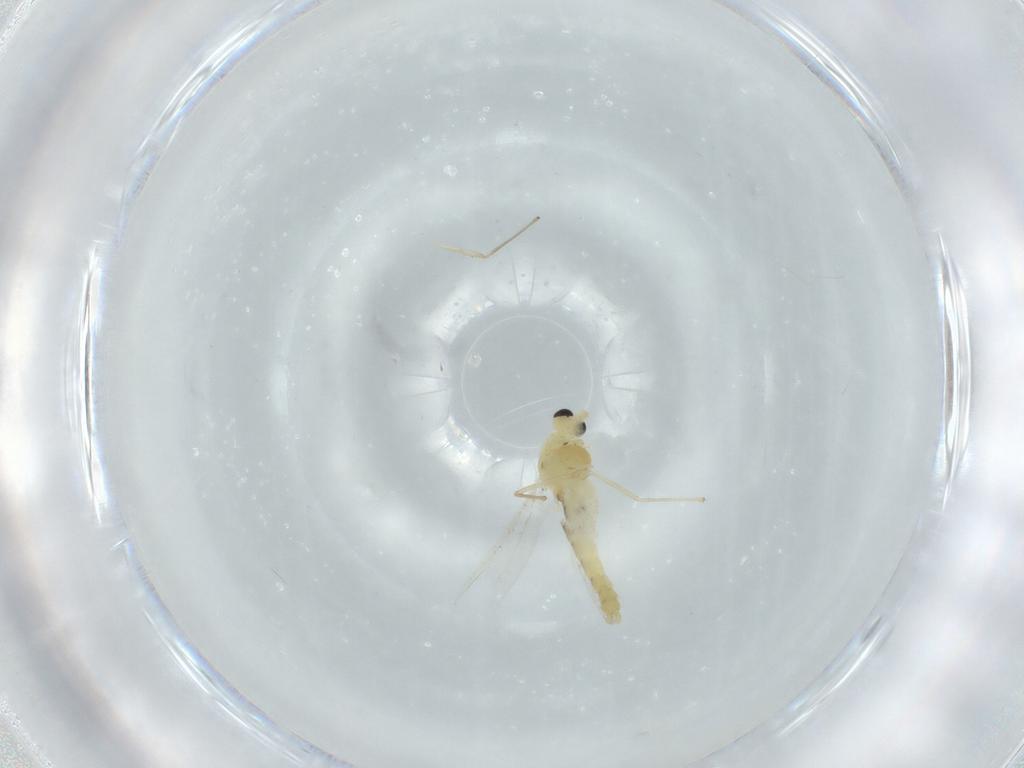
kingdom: Animalia
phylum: Arthropoda
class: Insecta
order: Diptera
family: Chironomidae
